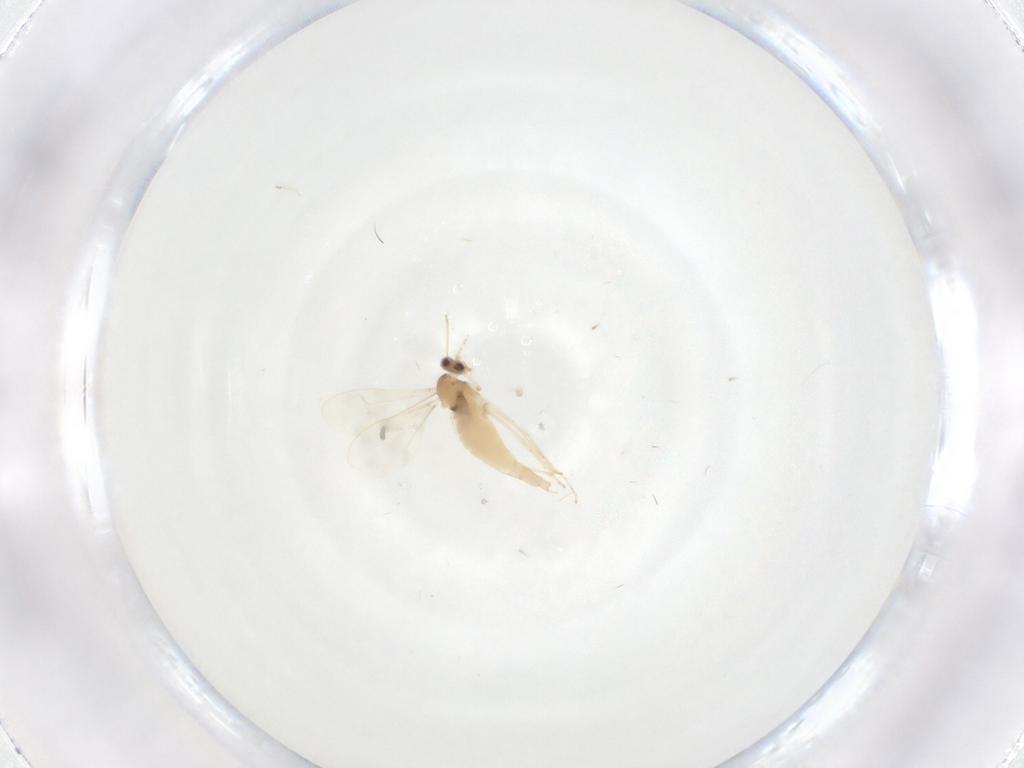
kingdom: Animalia
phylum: Arthropoda
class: Insecta
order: Diptera
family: Cecidomyiidae
